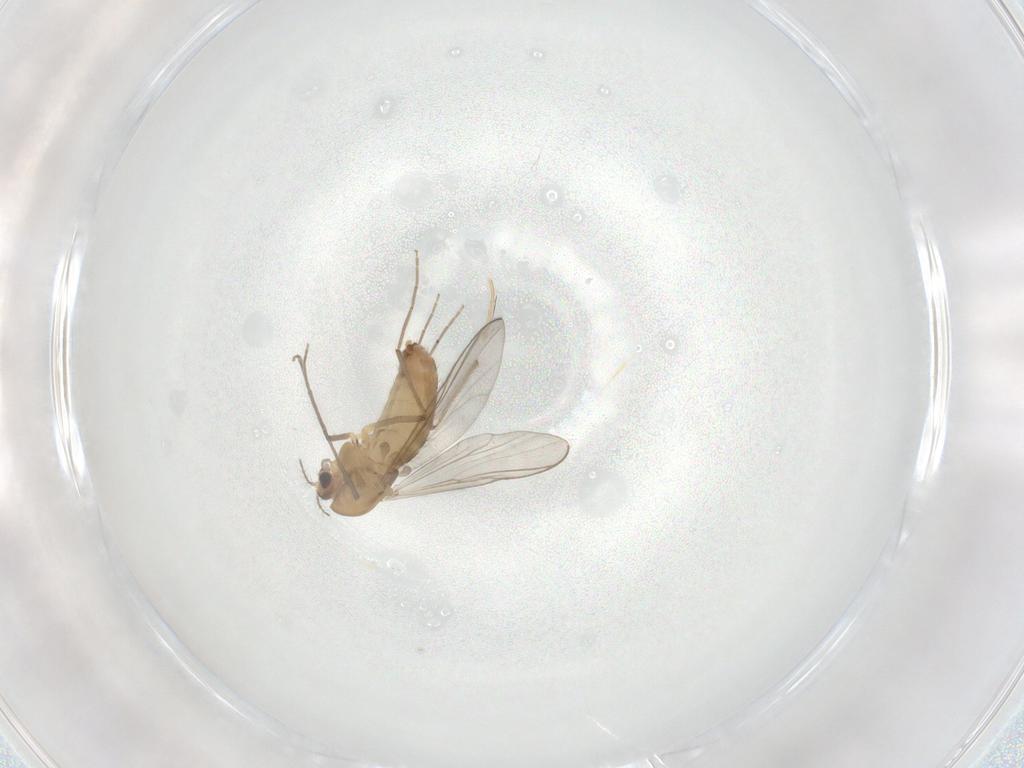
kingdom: Animalia
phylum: Arthropoda
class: Insecta
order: Diptera
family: Chironomidae
